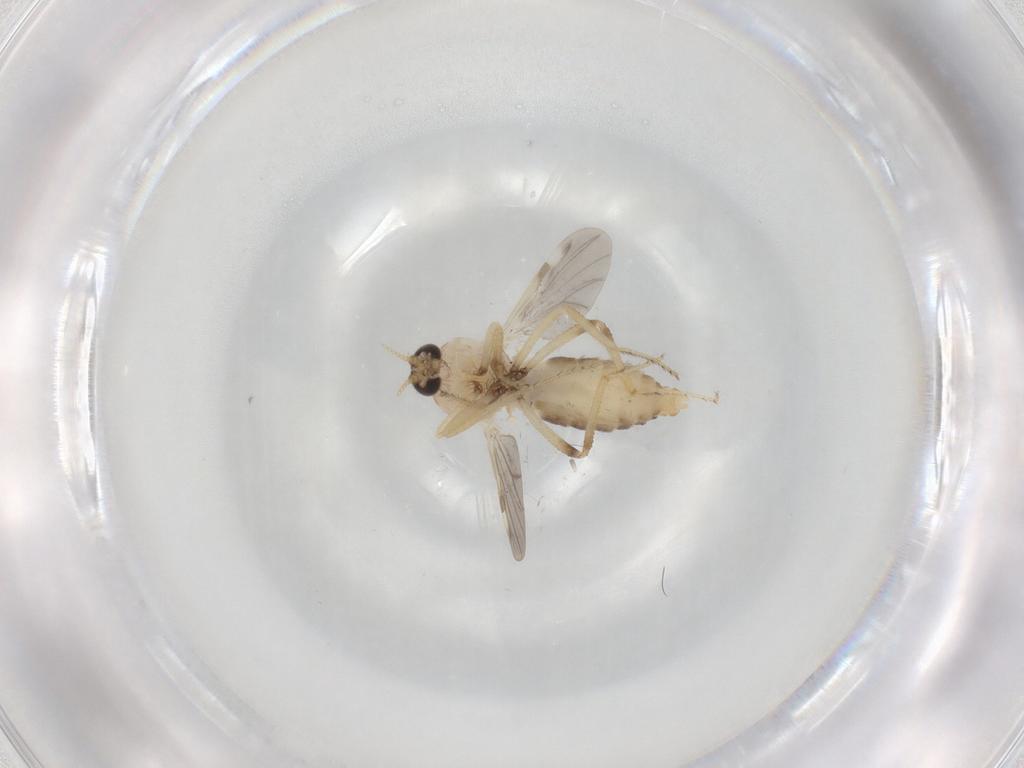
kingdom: Animalia
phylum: Arthropoda
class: Insecta
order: Diptera
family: Ceratopogonidae
